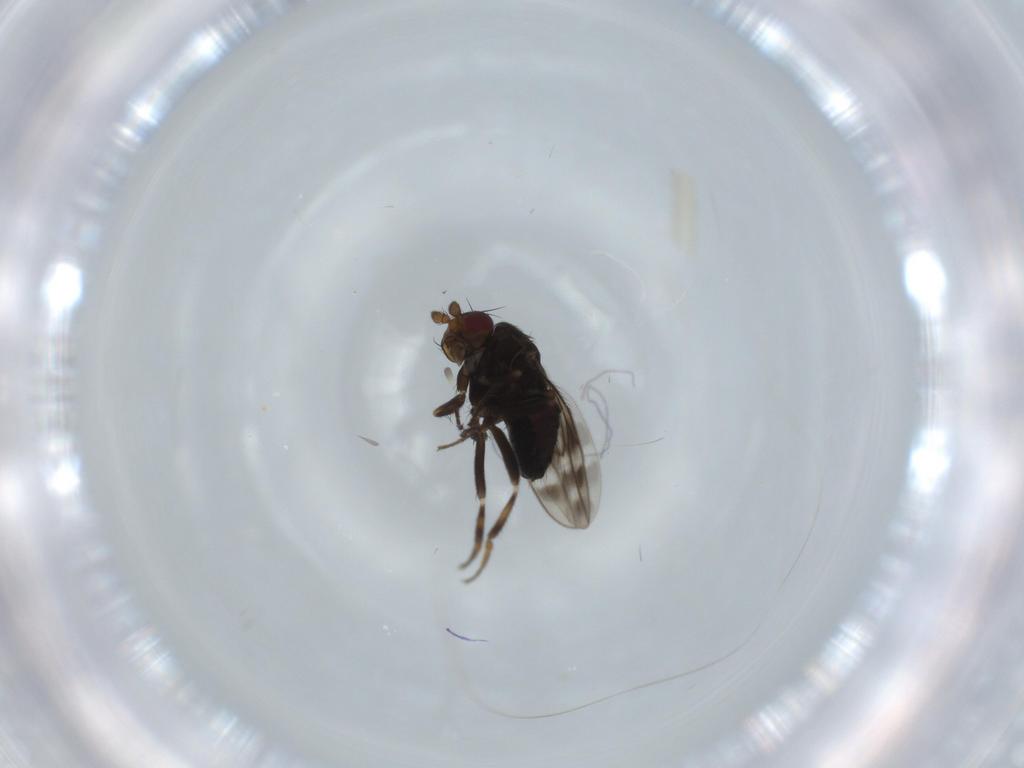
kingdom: Animalia
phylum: Arthropoda
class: Insecta
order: Diptera
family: Sphaeroceridae
